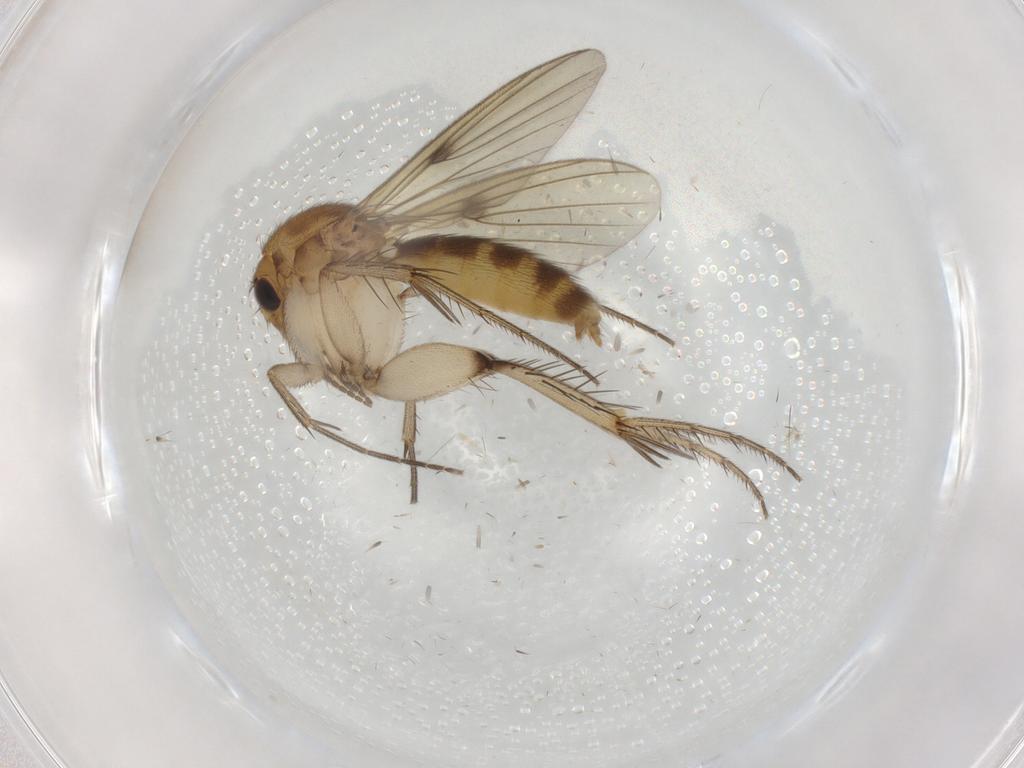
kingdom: Animalia
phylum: Arthropoda
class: Insecta
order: Diptera
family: Mycetophilidae
